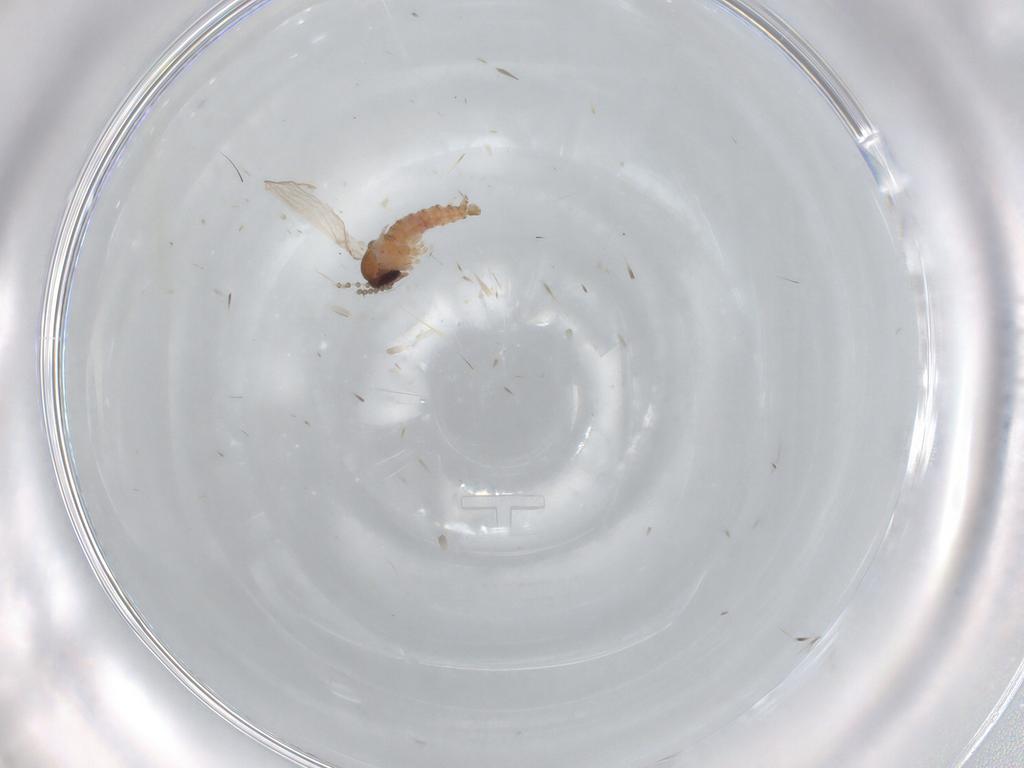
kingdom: Animalia
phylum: Arthropoda
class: Insecta
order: Diptera
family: Psychodidae
